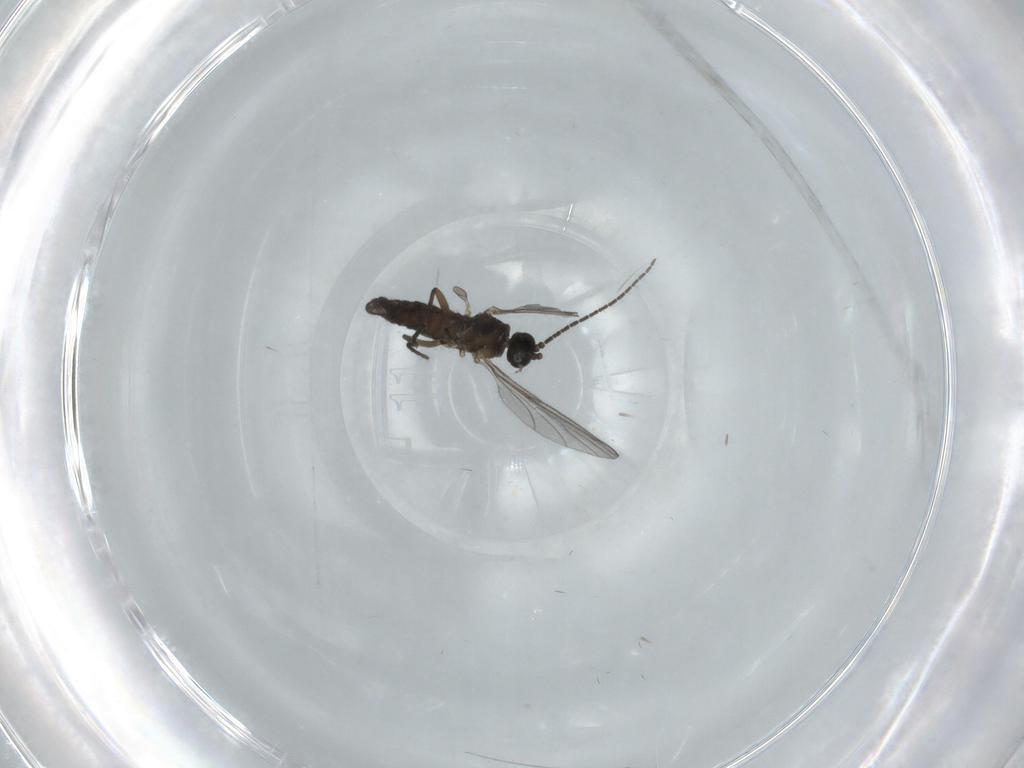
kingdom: Animalia
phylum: Arthropoda
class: Insecta
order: Diptera
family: Sciaridae
